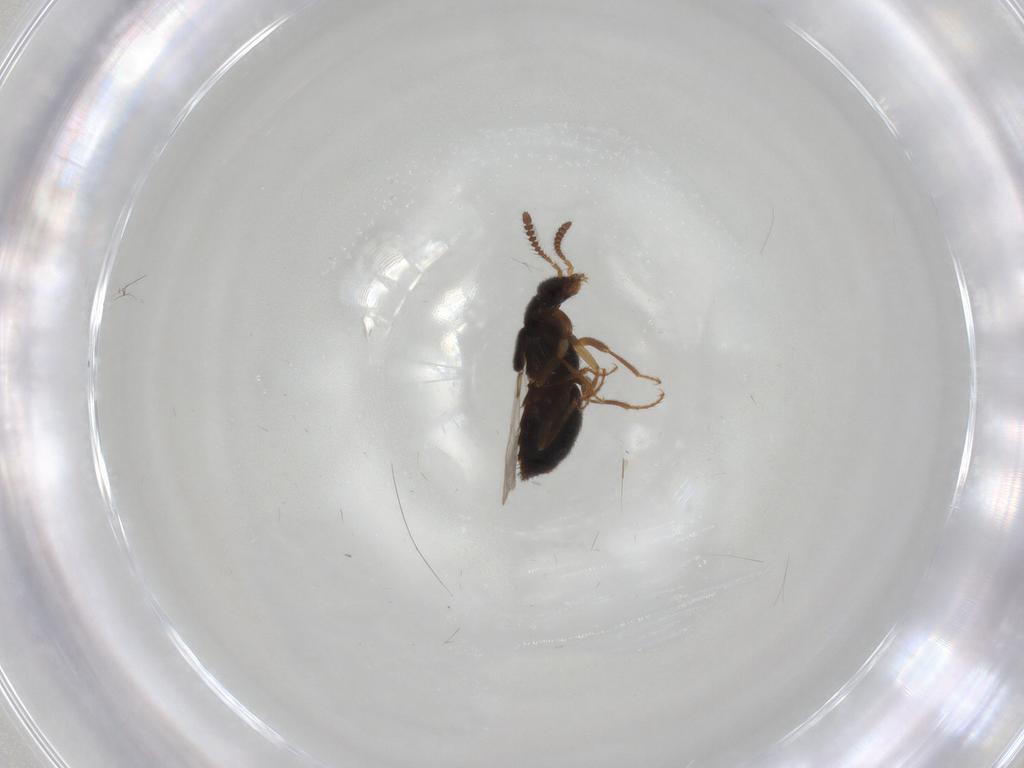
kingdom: Animalia
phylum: Arthropoda
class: Insecta
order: Coleoptera
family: Staphylinidae
